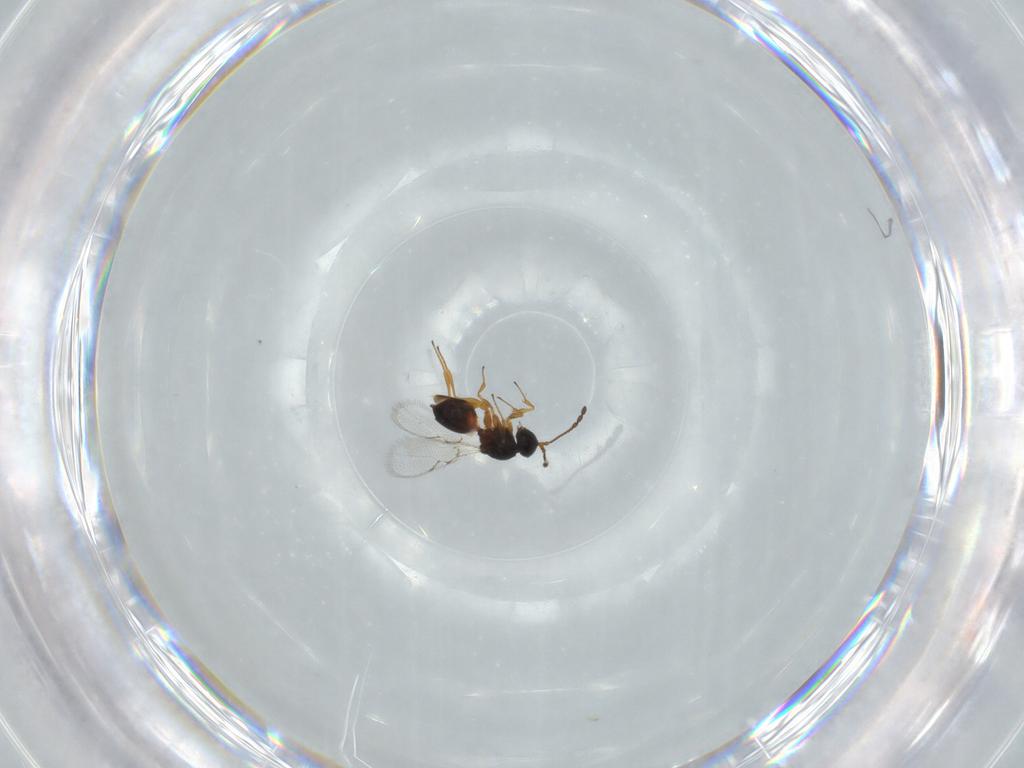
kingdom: Animalia
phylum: Arthropoda
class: Insecta
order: Hymenoptera
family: Figitidae
